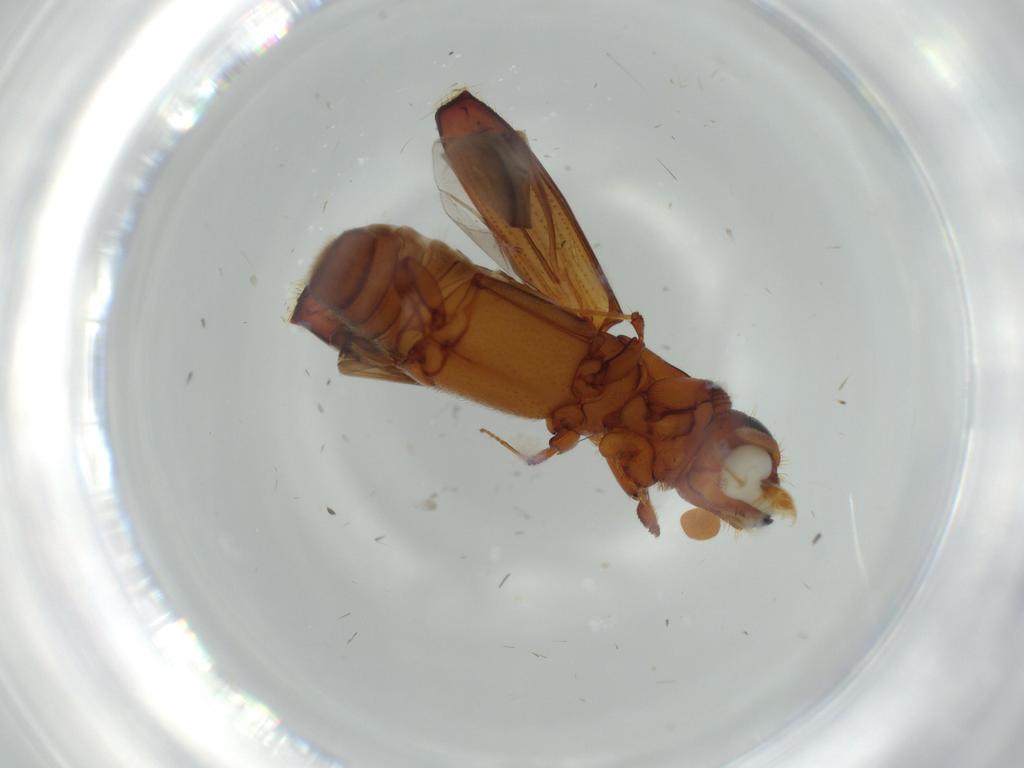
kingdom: Animalia
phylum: Arthropoda
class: Insecta
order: Coleoptera
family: Curculionidae
